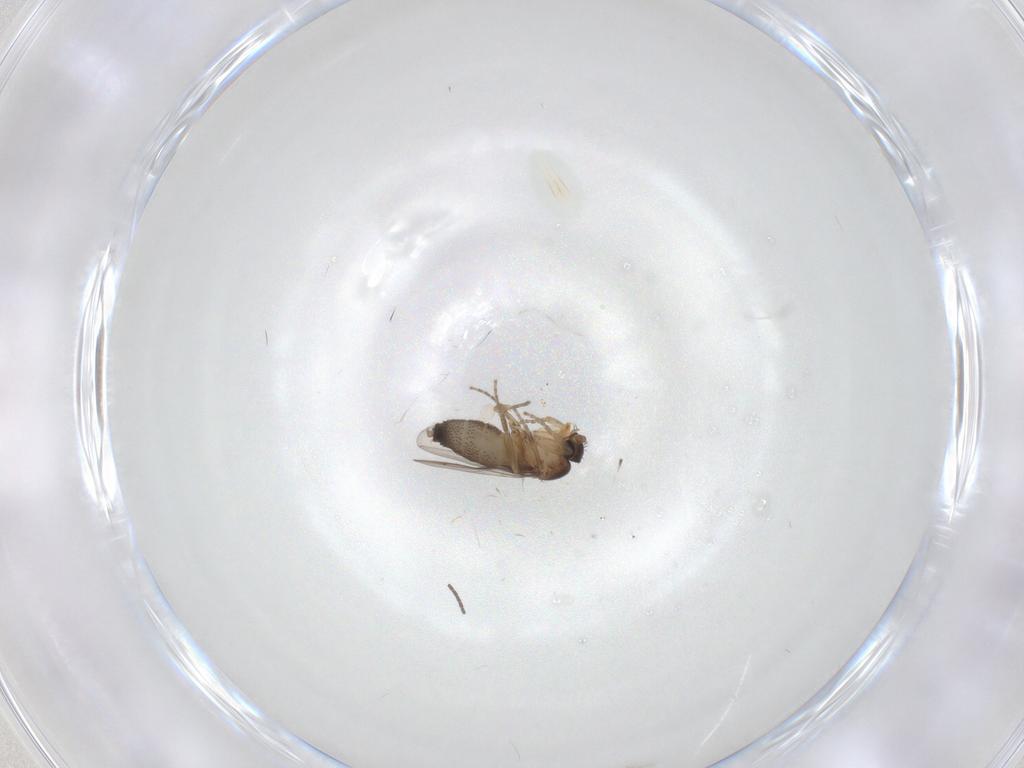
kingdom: Animalia
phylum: Arthropoda
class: Insecta
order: Diptera
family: Phoridae
